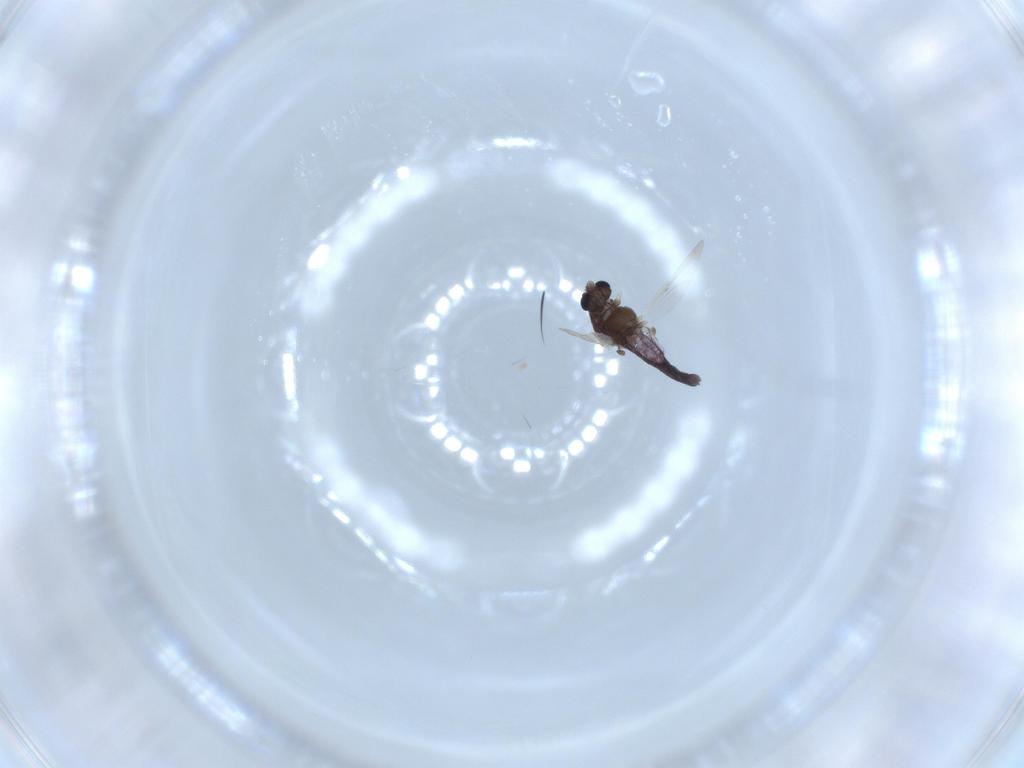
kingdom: Animalia
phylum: Arthropoda
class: Insecta
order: Diptera
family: Chironomidae
